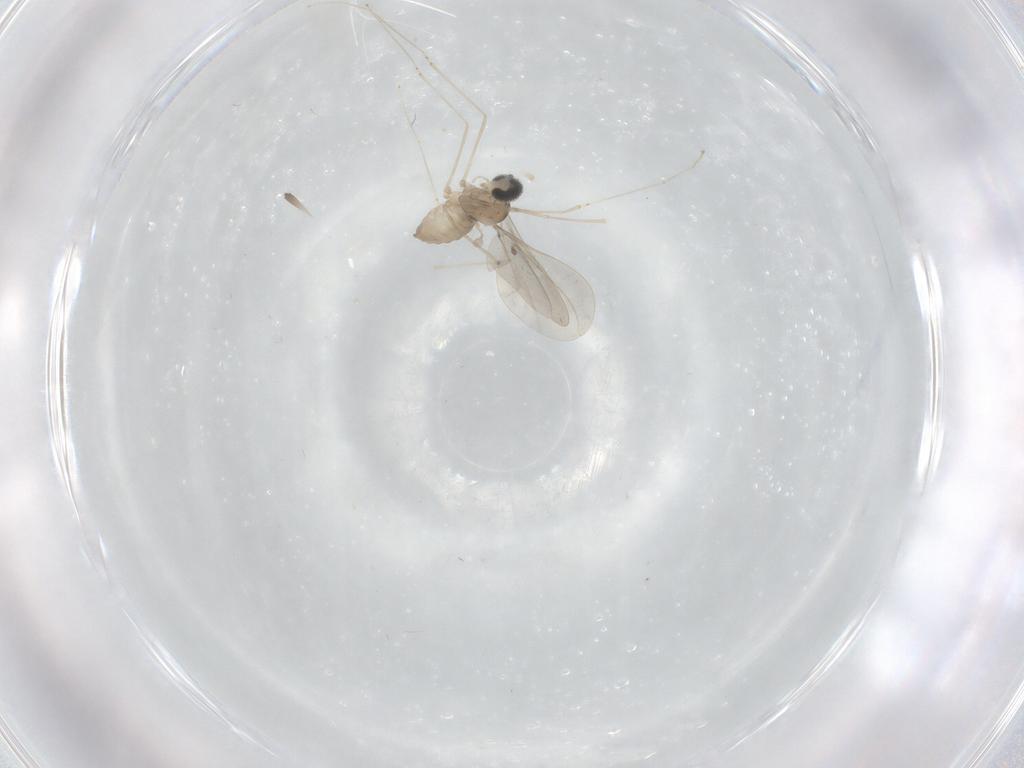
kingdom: Animalia
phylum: Arthropoda
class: Insecta
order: Diptera
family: Cecidomyiidae
